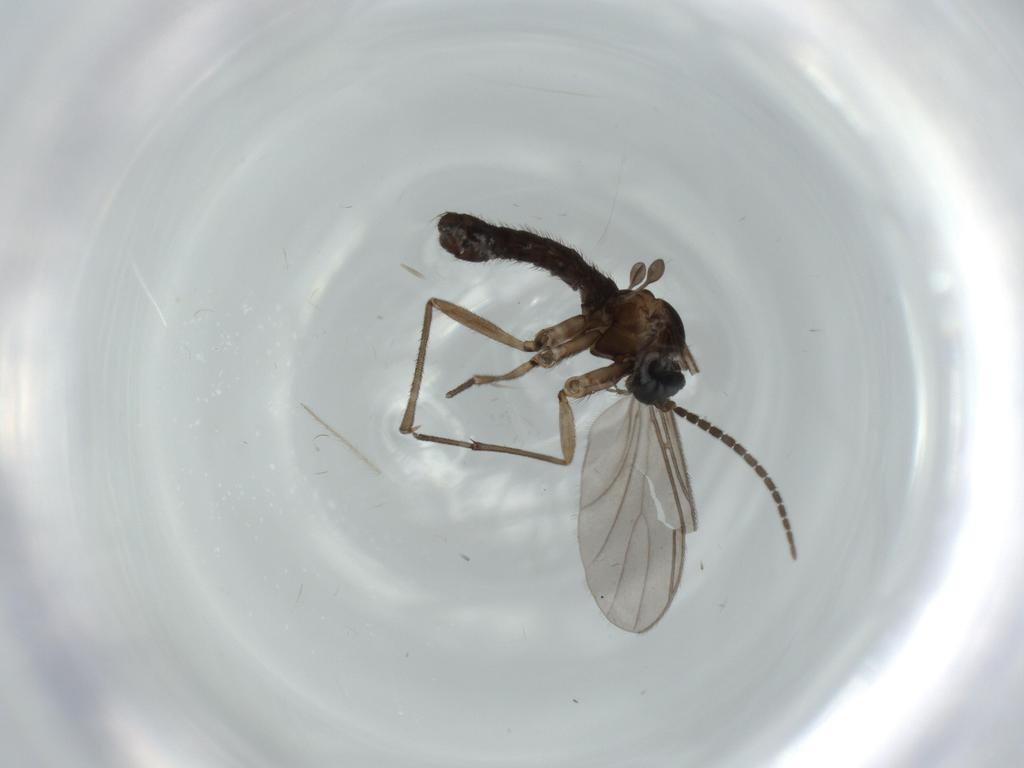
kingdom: Animalia
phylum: Arthropoda
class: Insecta
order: Diptera
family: Sciaridae
